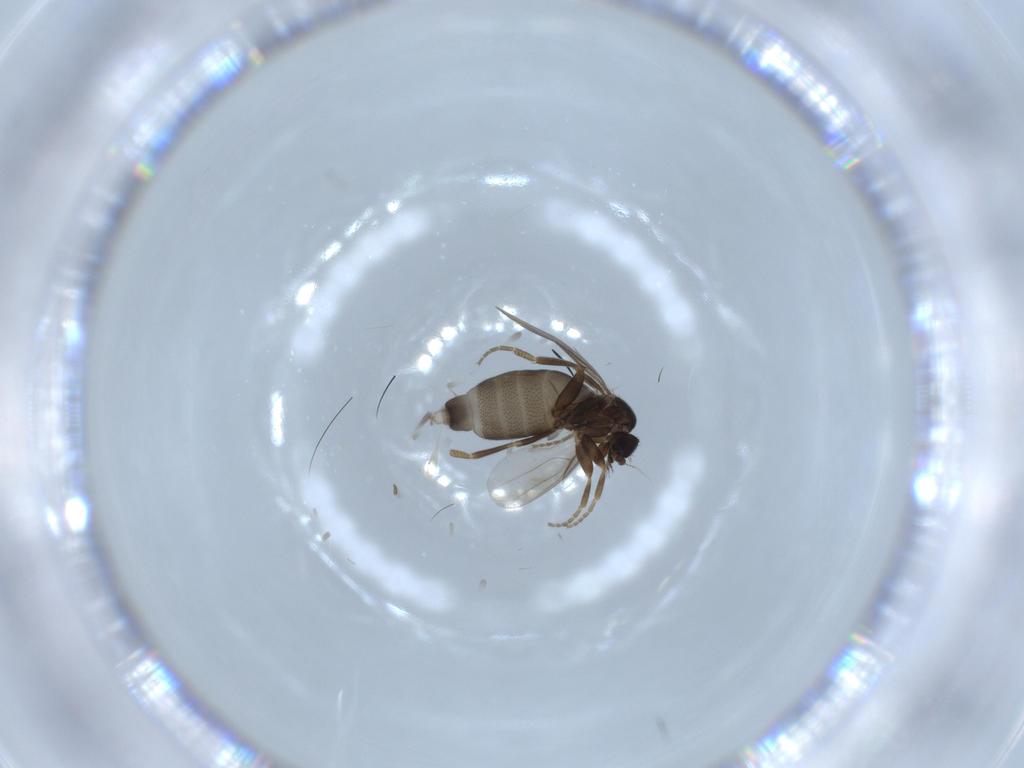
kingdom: Animalia
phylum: Arthropoda
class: Insecta
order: Diptera
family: Phoridae
